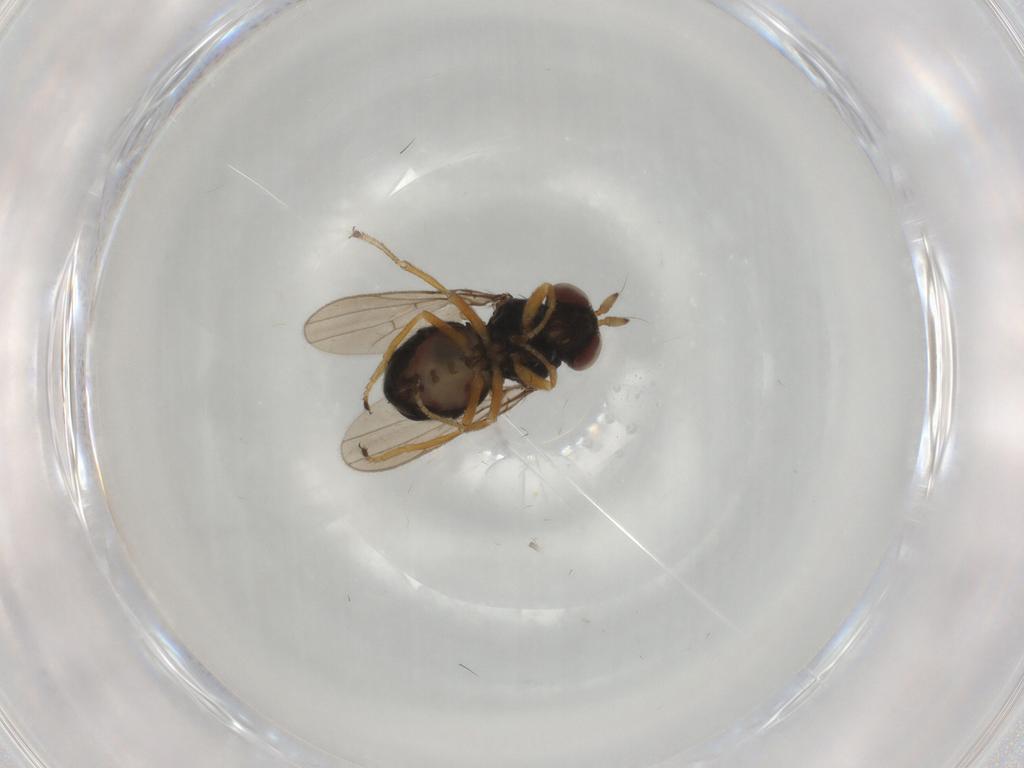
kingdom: Animalia
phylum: Arthropoda
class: Insecta
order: Diptera
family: Ephydridae
